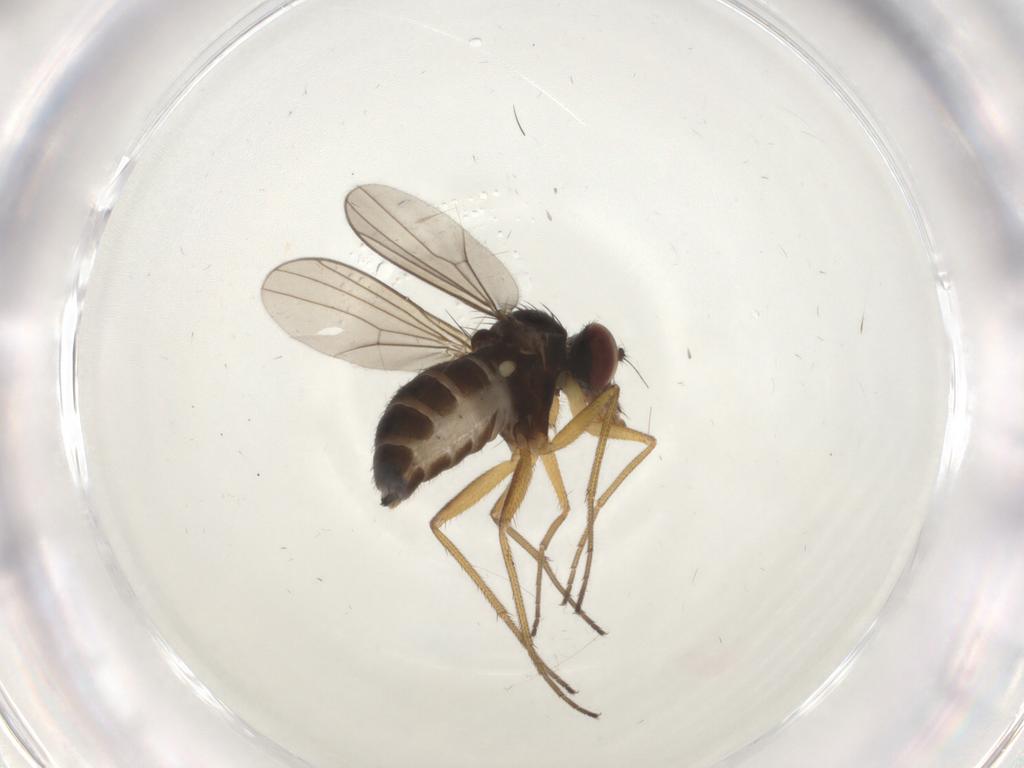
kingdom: Animalia
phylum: Arthropoda
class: Insecta
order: Diptera
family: Dolichopodidae
